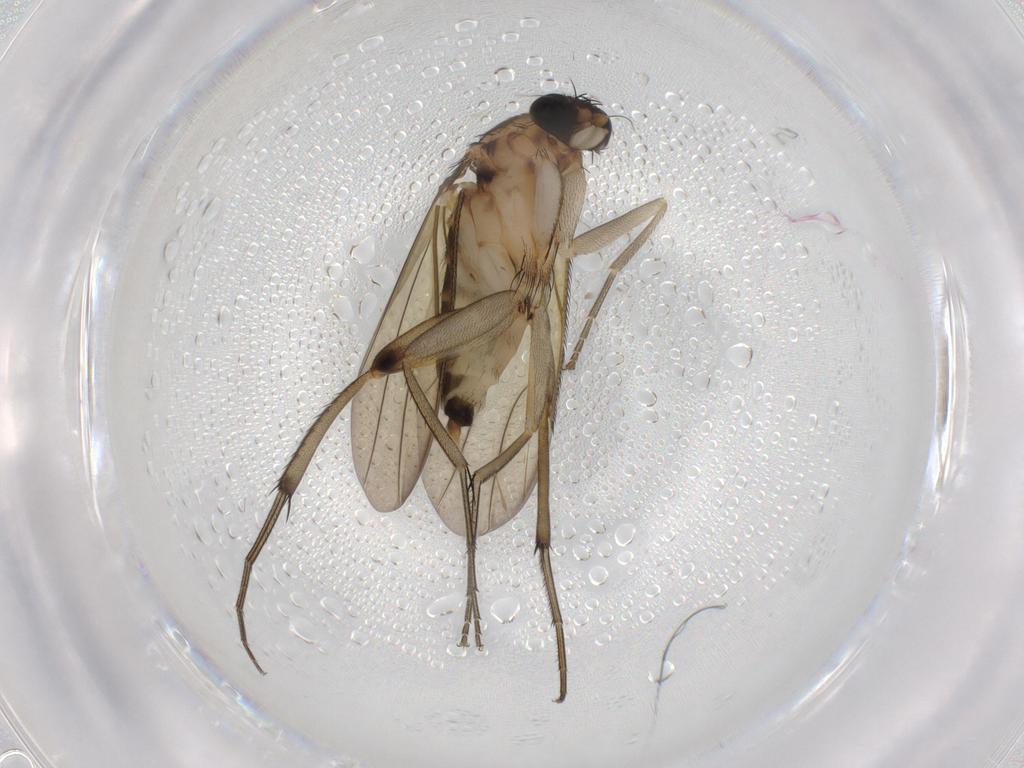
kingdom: Animalia
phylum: Arthropoda
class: Insecta
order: Diptera
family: Phoridae
